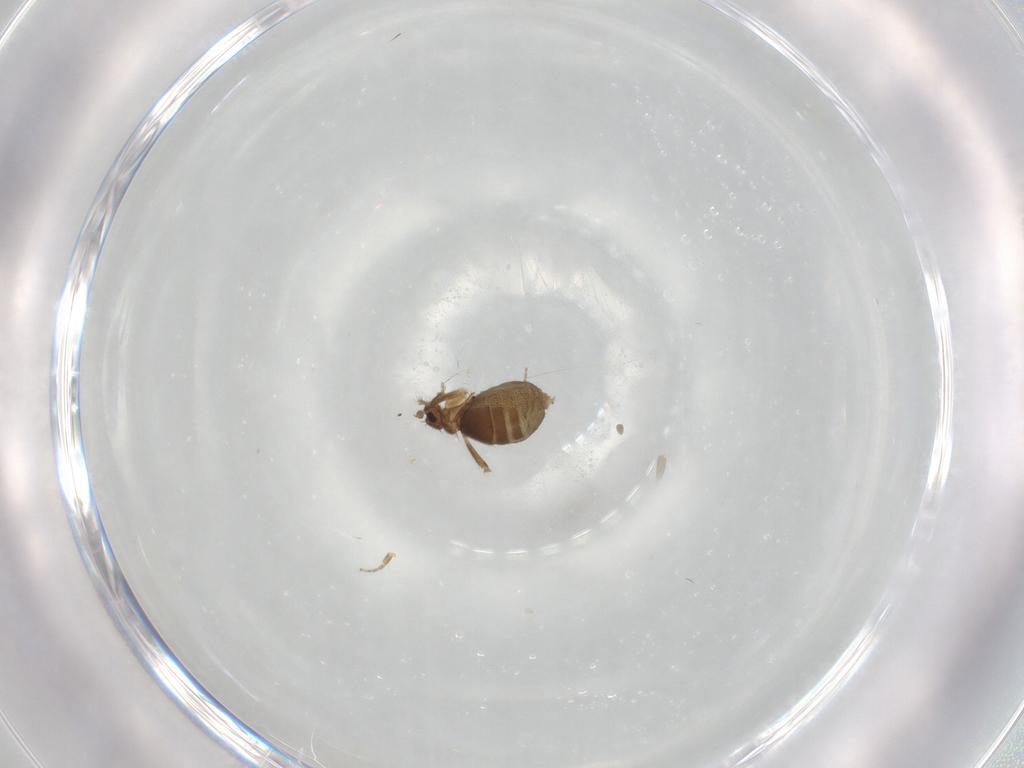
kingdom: Animalia
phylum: Arthropoda
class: Insecta
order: Diptera
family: Phoridae
